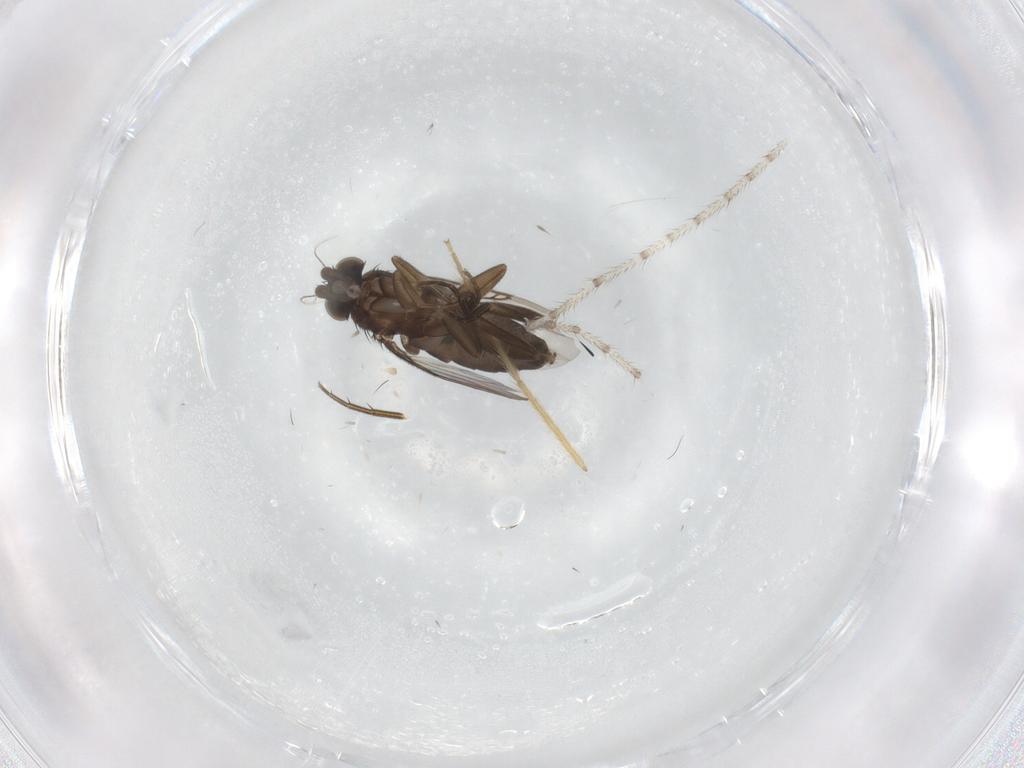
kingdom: Animalia
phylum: Arthropoda
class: Insecta
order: Diptera
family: Phoridae
